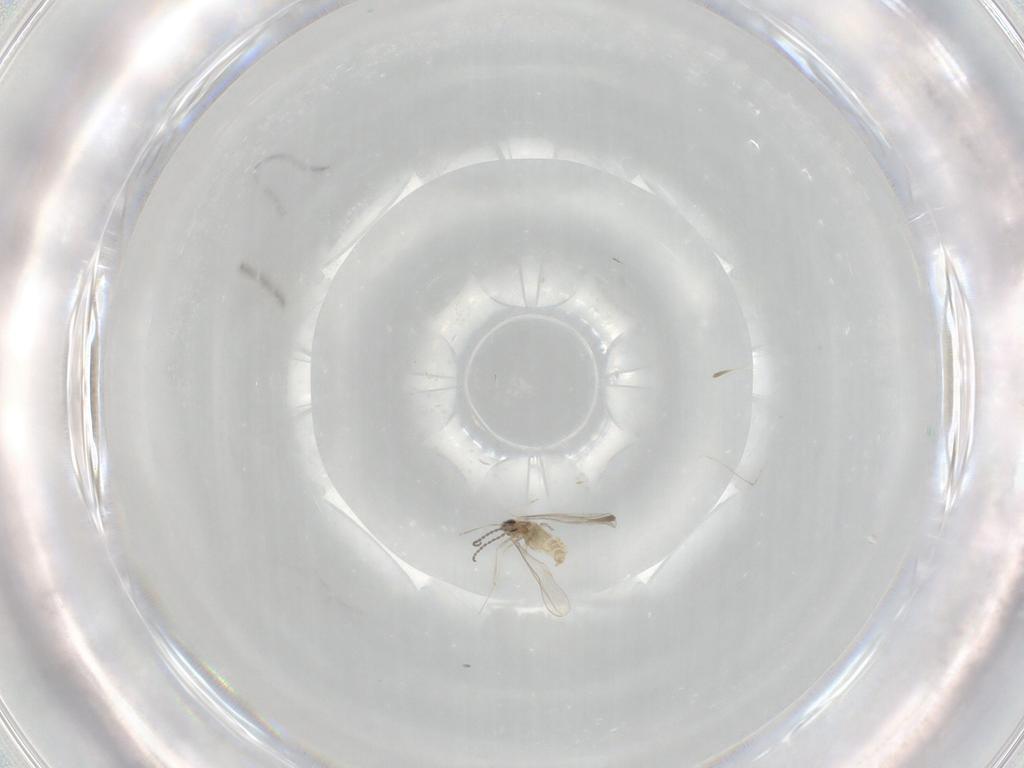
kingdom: Animalia
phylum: Arthropoda
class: Insecta
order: Diptera
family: Cecidomyiidae
